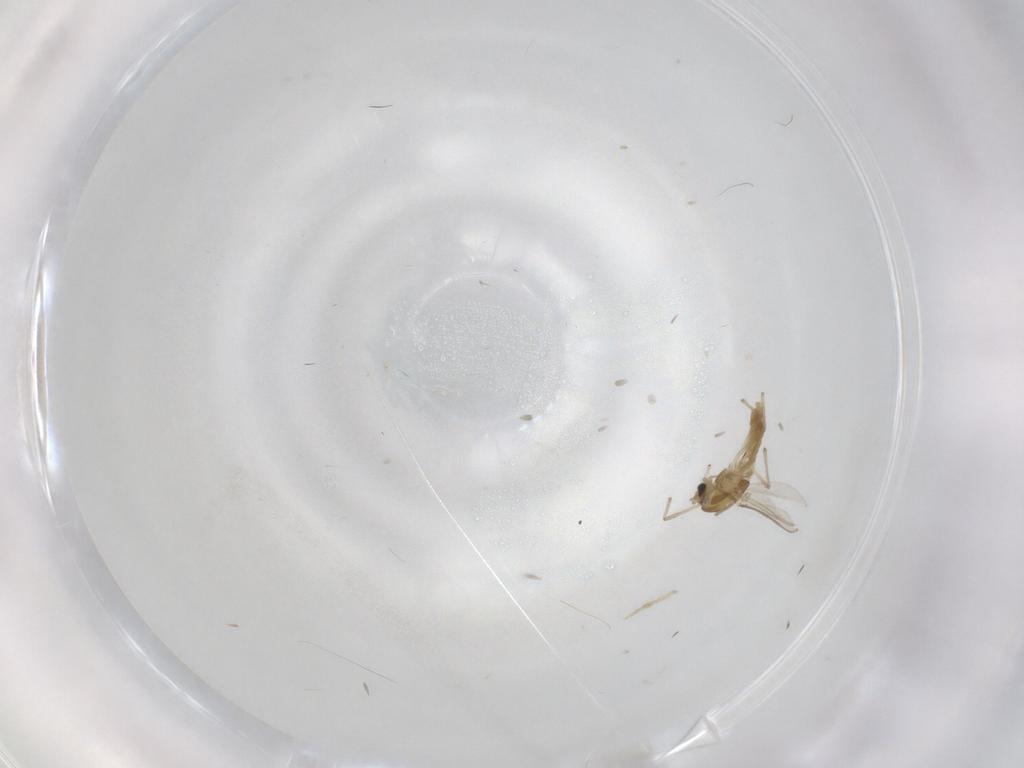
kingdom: Animalia
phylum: Arthropoda
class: Insecta
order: Diptera
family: Chironomidae
